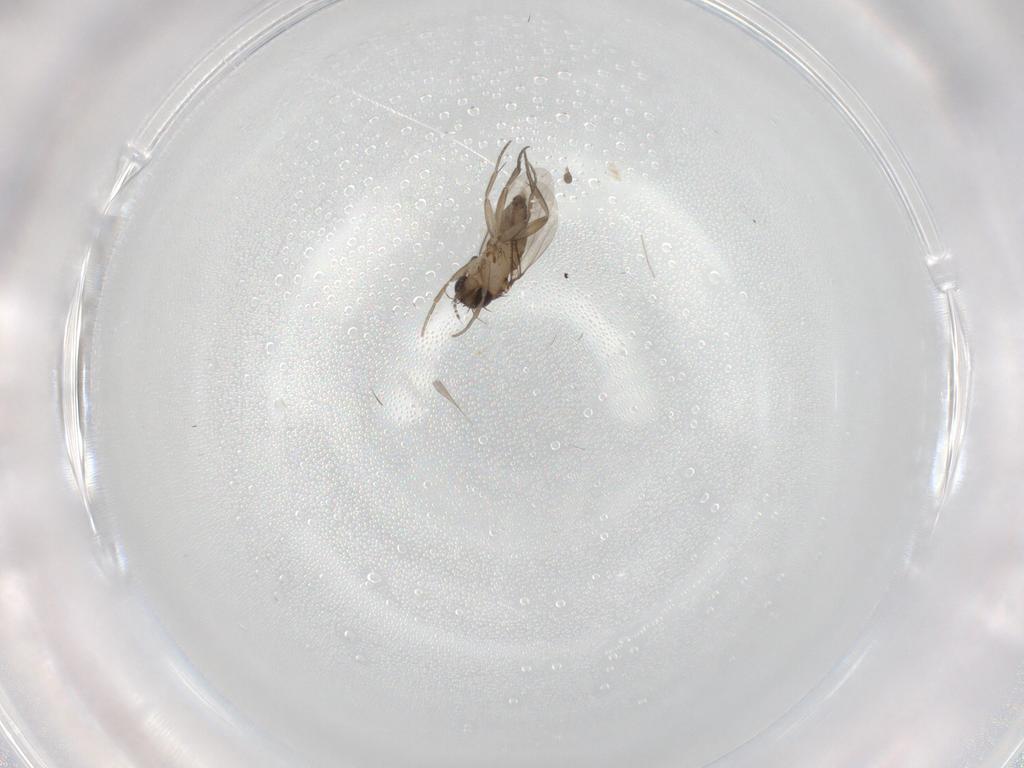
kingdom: Animalia
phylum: Arthropoda
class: Insecta
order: Diptera
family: Phoridae
